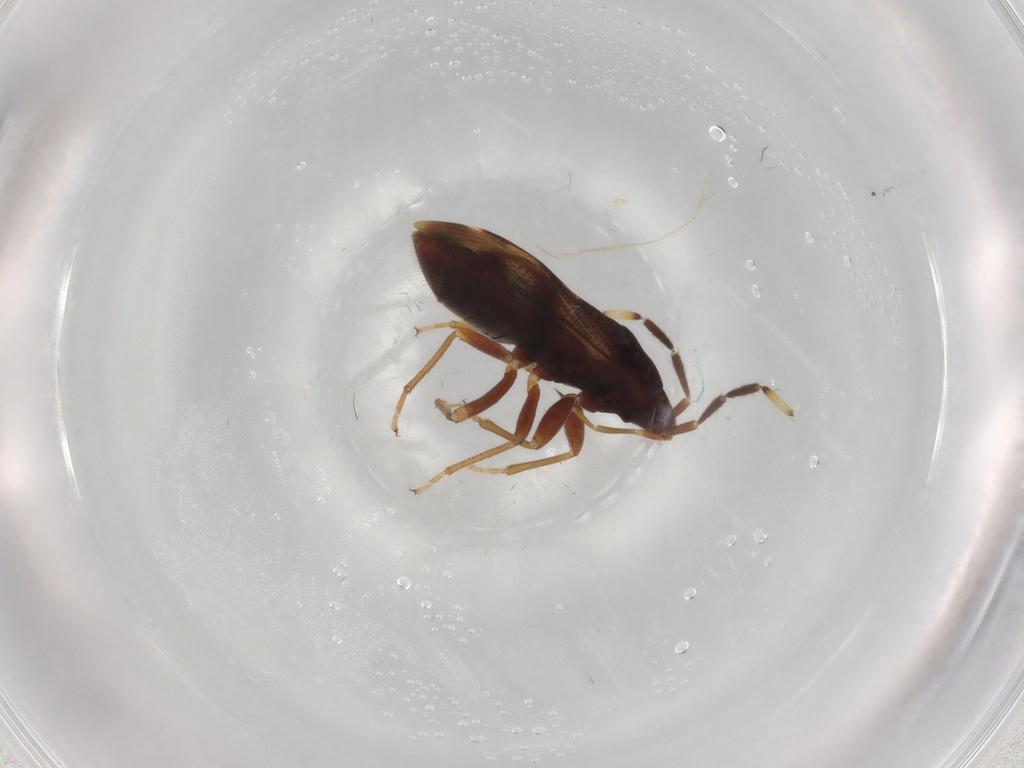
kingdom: Animalia
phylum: Arthropoda
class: Insecta
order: Hemiptera
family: Rhyparochromidae
